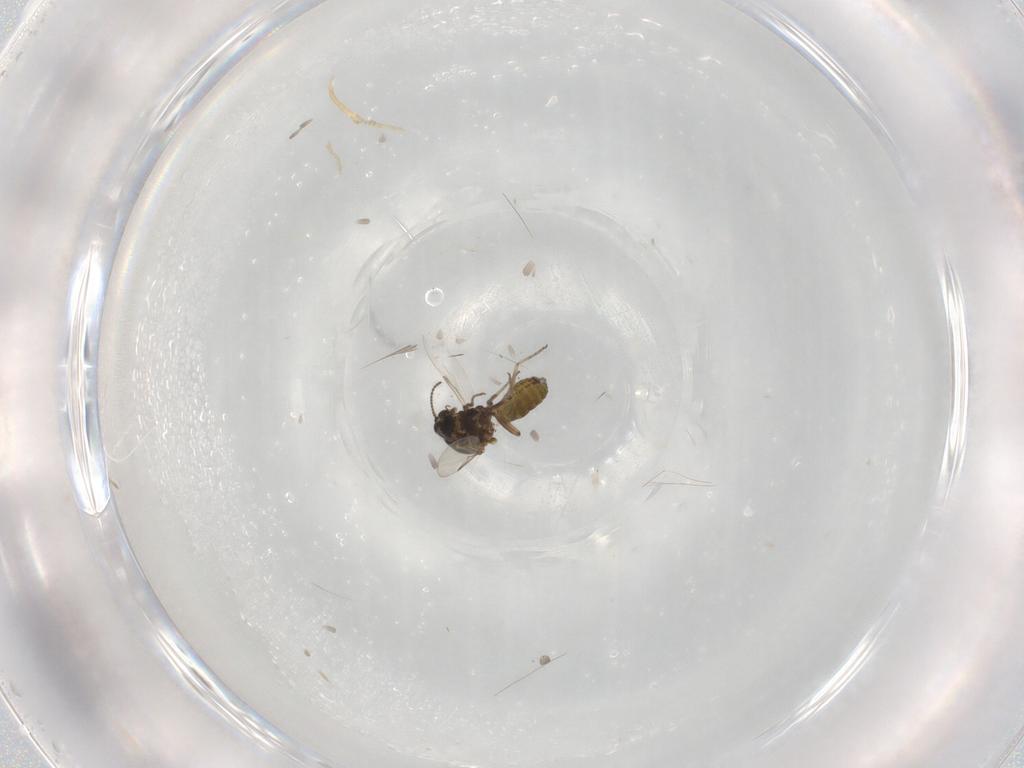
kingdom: Animalia
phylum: Arthropoda
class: Insecta
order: Diptera
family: Ceratopogonidae
